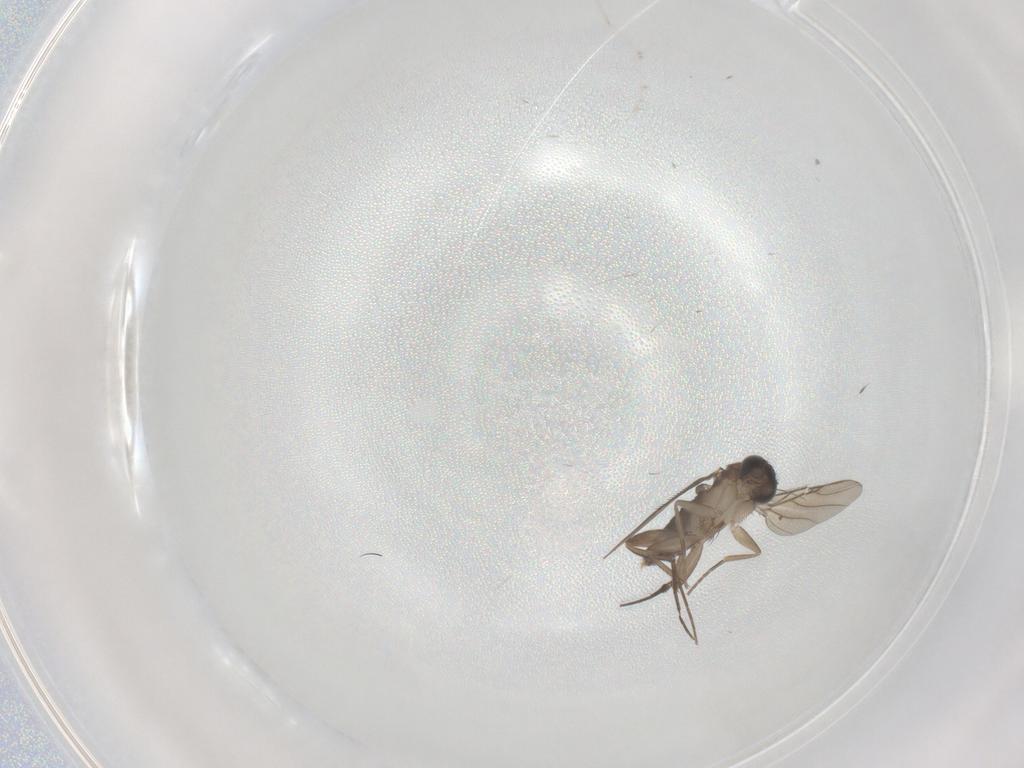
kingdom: Animalia
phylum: Arthropoda
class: Insecta
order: Diptera
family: Phoridae
